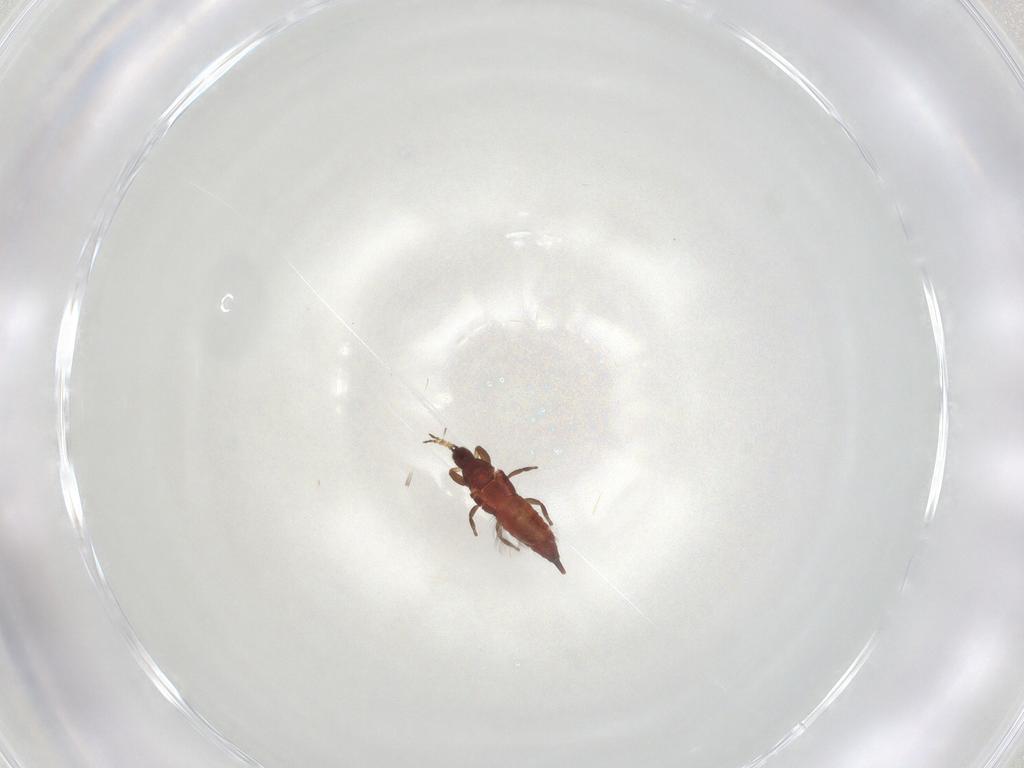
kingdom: Animalia
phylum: Arthropoda
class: Insecta
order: Thysanoptera
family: Phlaeothripidae
